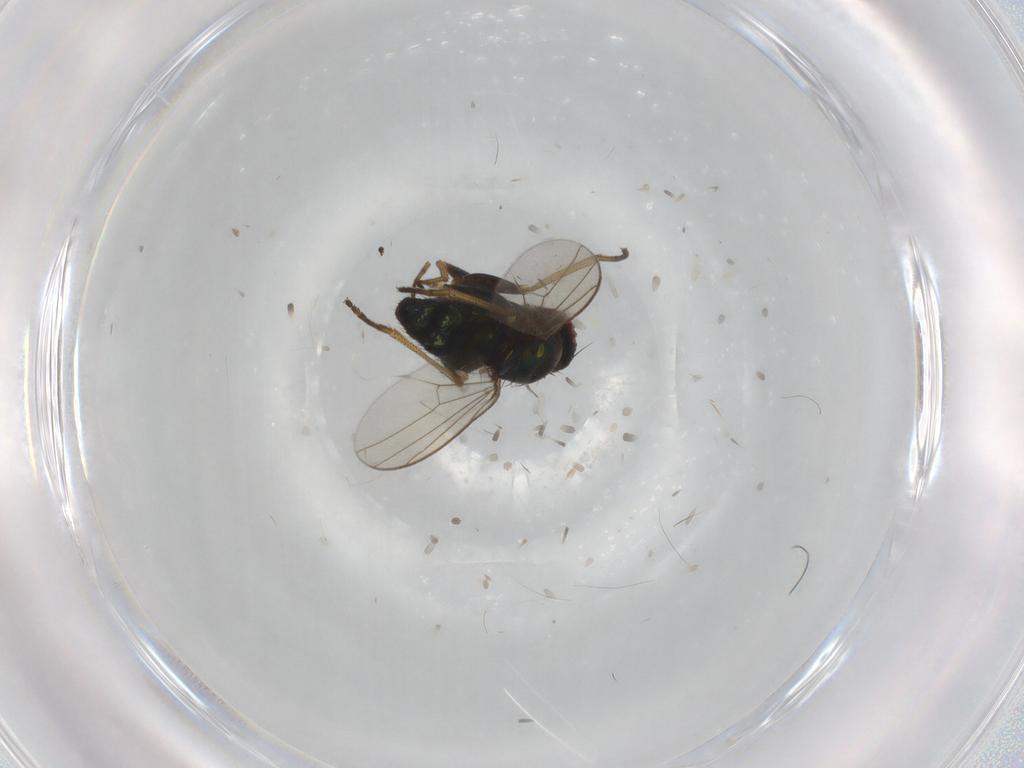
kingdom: Animalia
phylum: Arthropoda
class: Insecta
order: Diptera
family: Dolichopodidae
